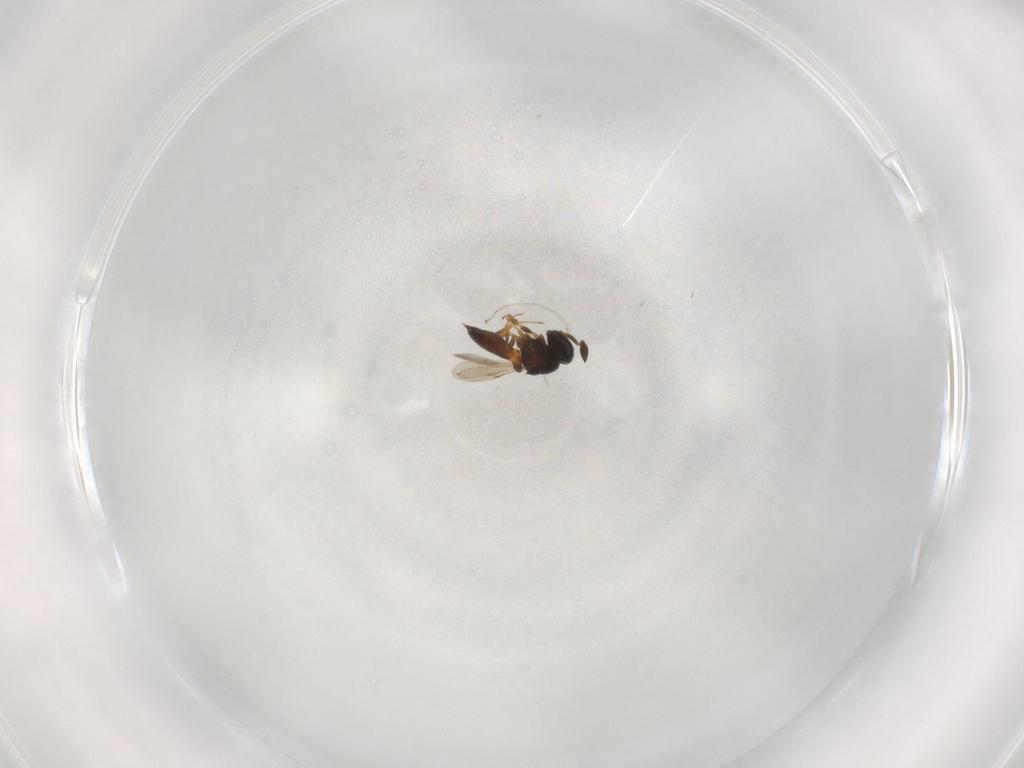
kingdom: Animalia
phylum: Arthropoda
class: Insecta
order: Hymenoptera
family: Scelionidae
